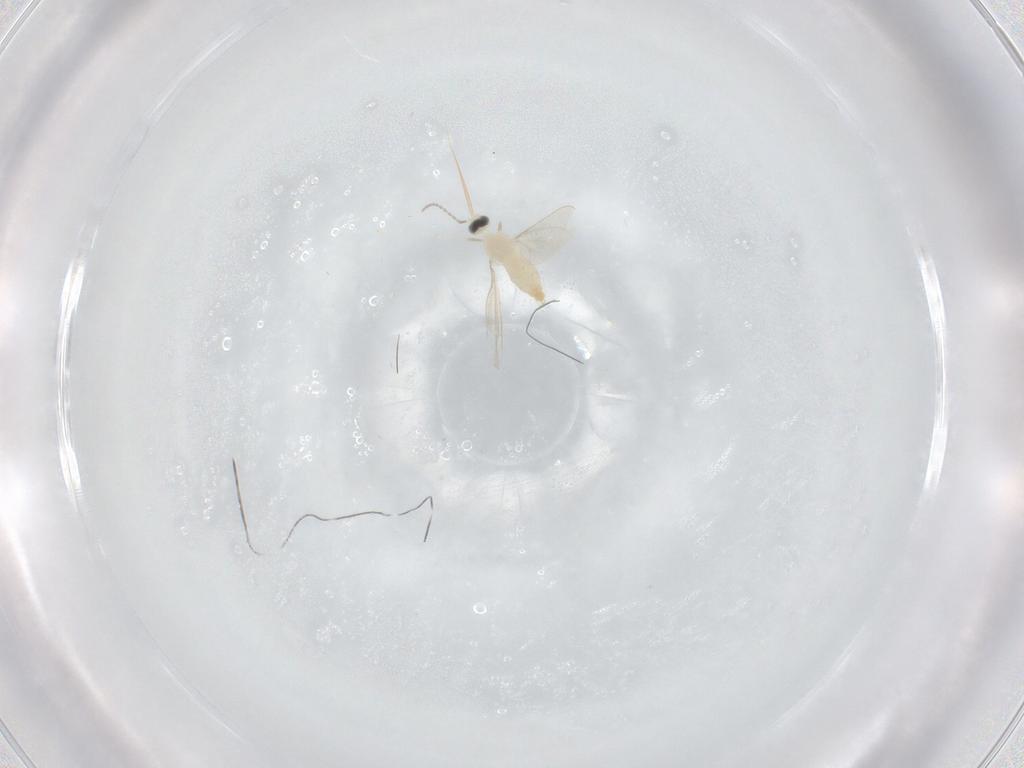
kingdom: Animalia
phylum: Arthropoda
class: Insecta
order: Diptera
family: Cecidomyiidae
